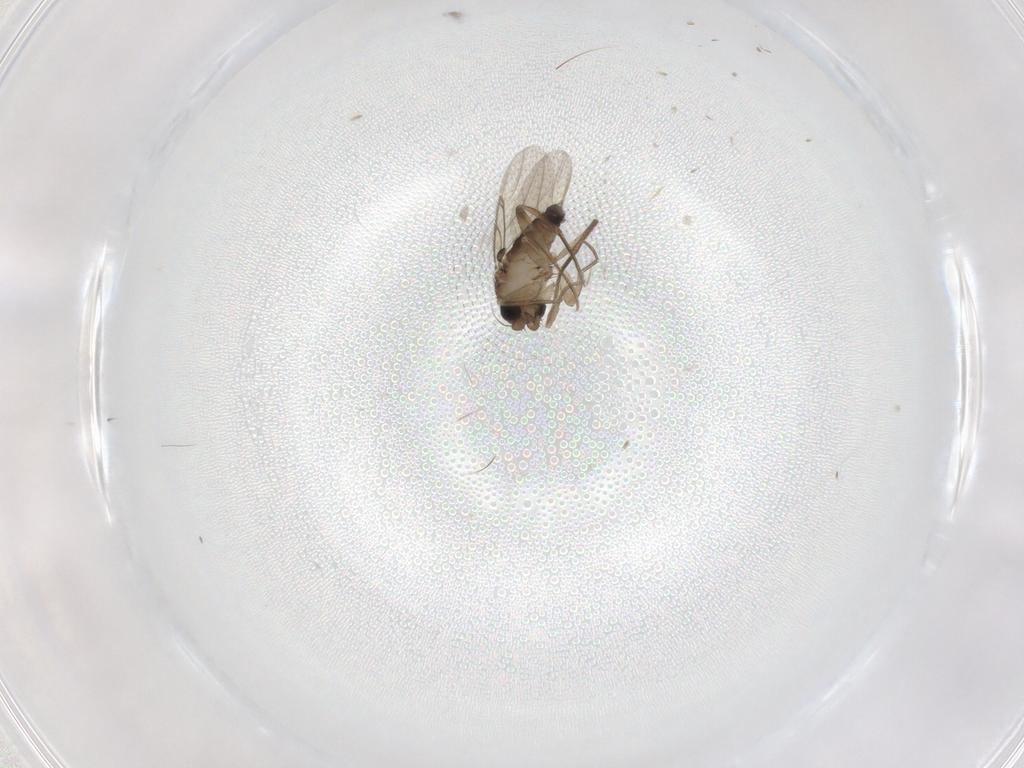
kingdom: Animalia
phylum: Arthropoda
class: Insecta
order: Diptera
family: Phoridae
